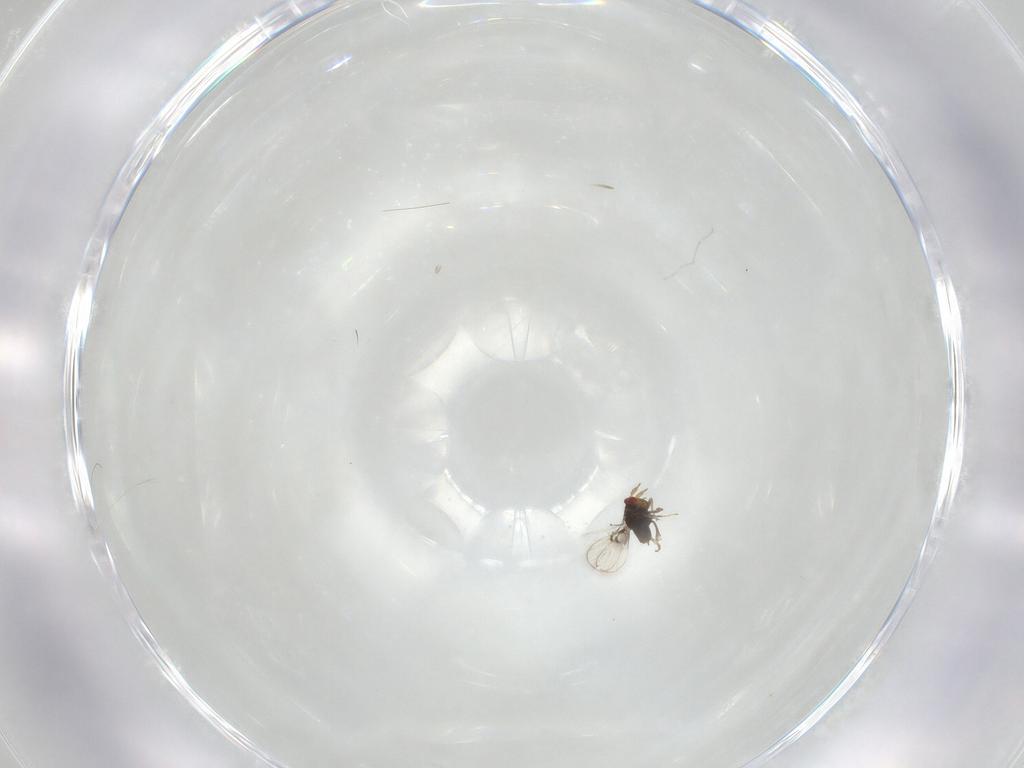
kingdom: Animalia
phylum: Arthropoda
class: Insecta
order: Hymenoptera
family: Trichogrammatidae
